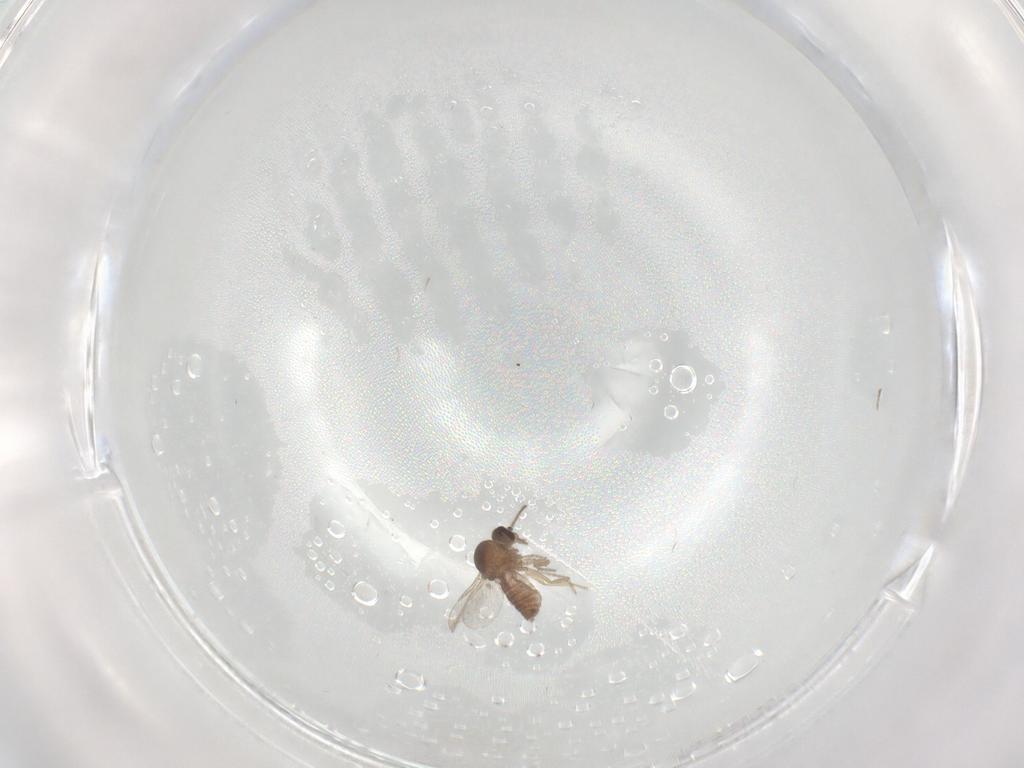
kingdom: Animalia
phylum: Arthropoda
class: Insecta
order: Diptera
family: Ceratopogonidae
